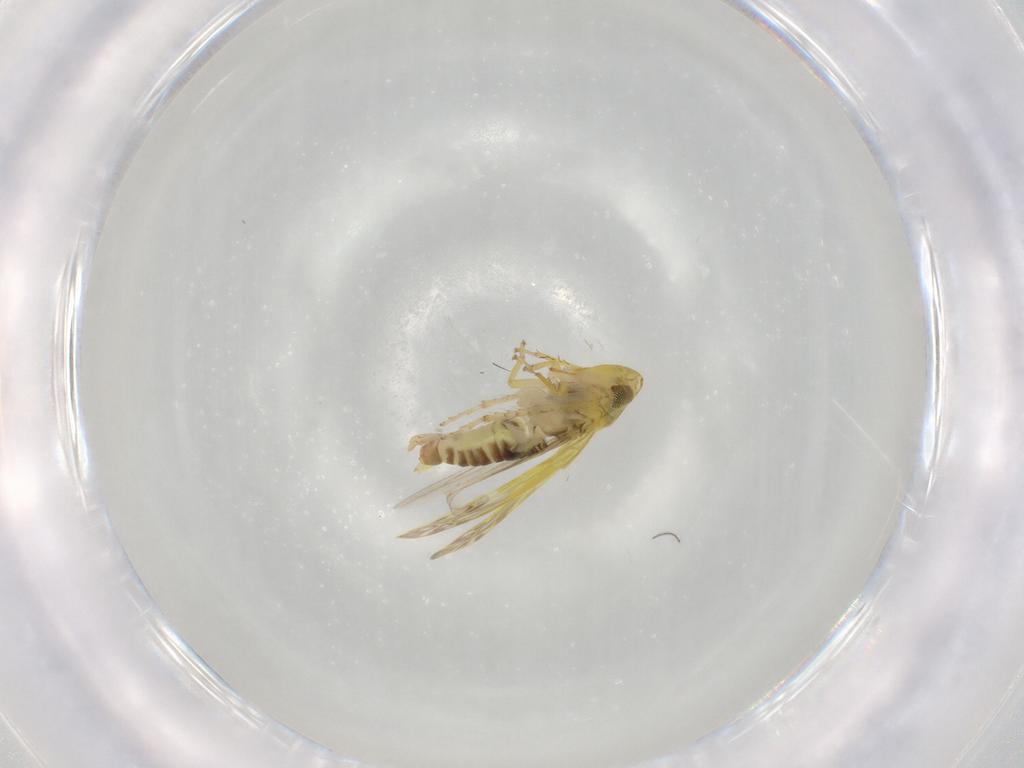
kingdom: Animalia
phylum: Arthropoda
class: Insecta
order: Hemiptera
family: Cicadellidae
